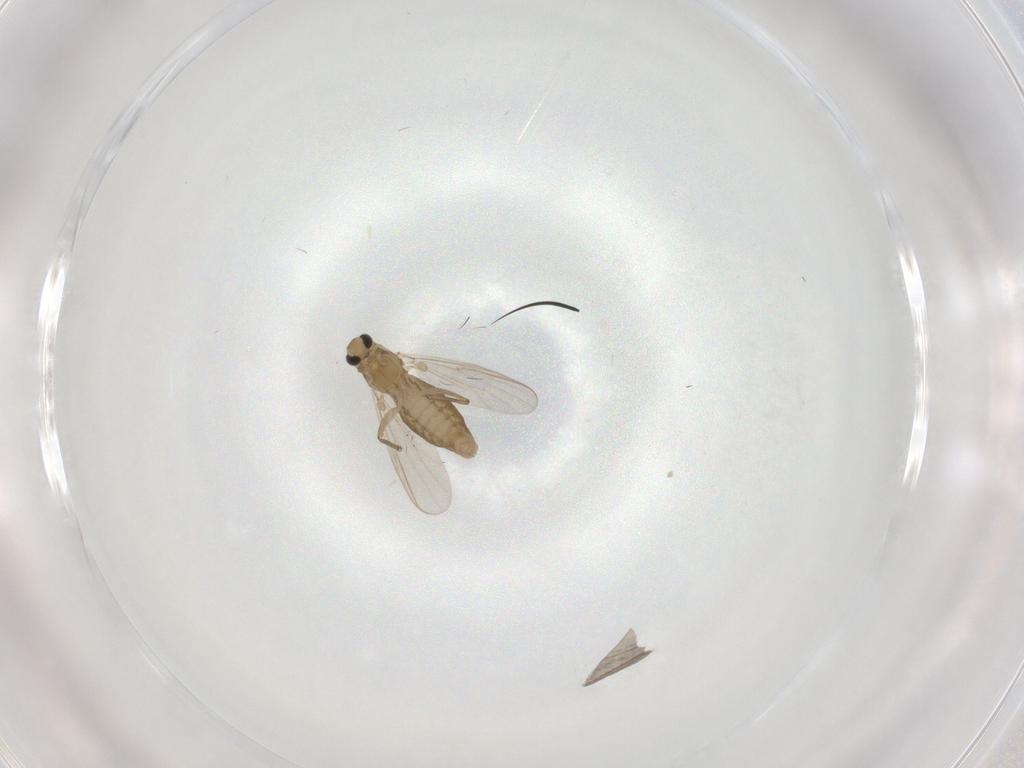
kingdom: Animalia
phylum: Arthropoda
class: Insecta
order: Diptera
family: Chironomidae
